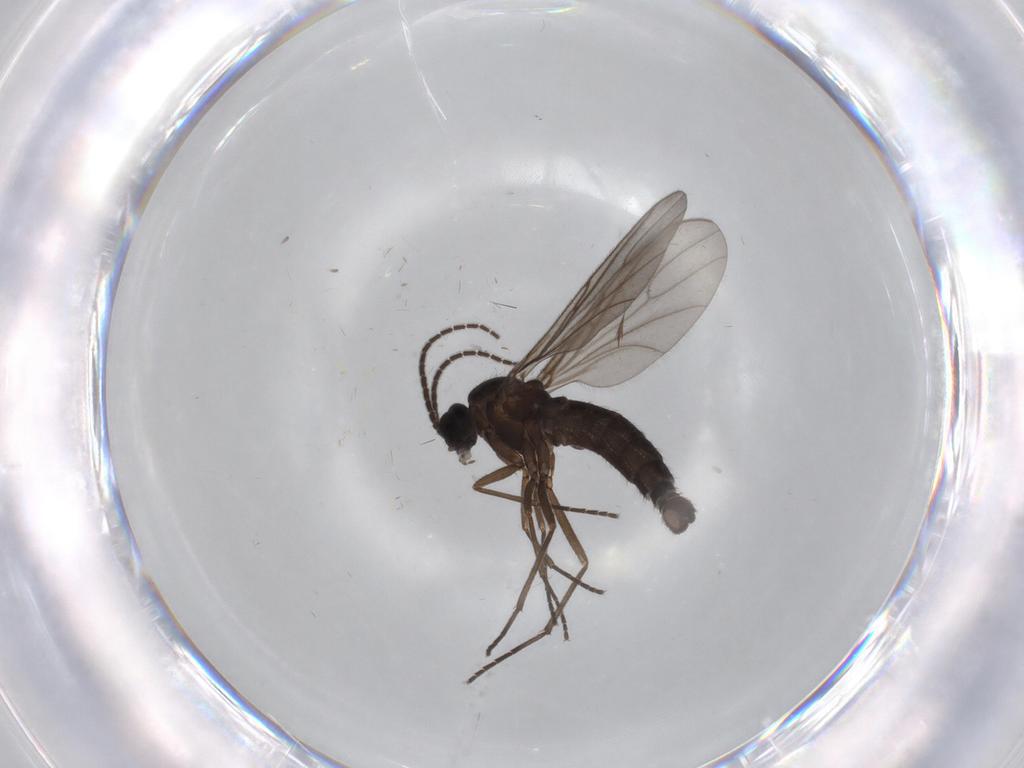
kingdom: Animalia
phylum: Arthropoda
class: Insecta
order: Diptera
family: Sciaridae
